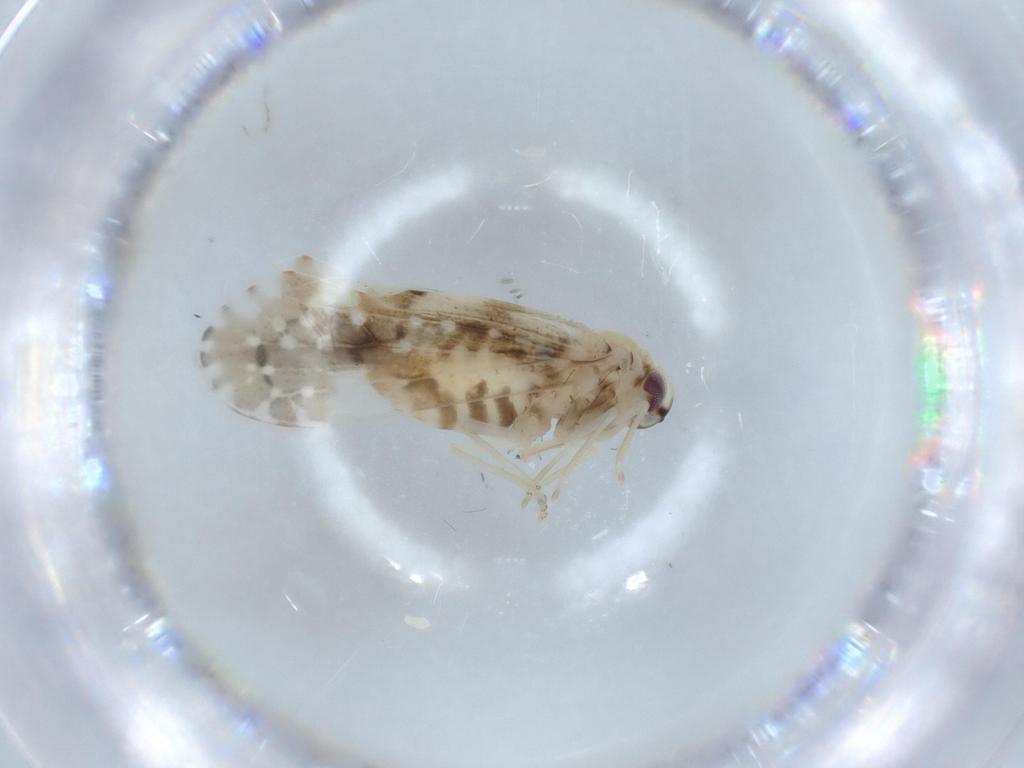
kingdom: Animalia
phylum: Arthropoda
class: Insecta
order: Hemiptera
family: Derbidae
